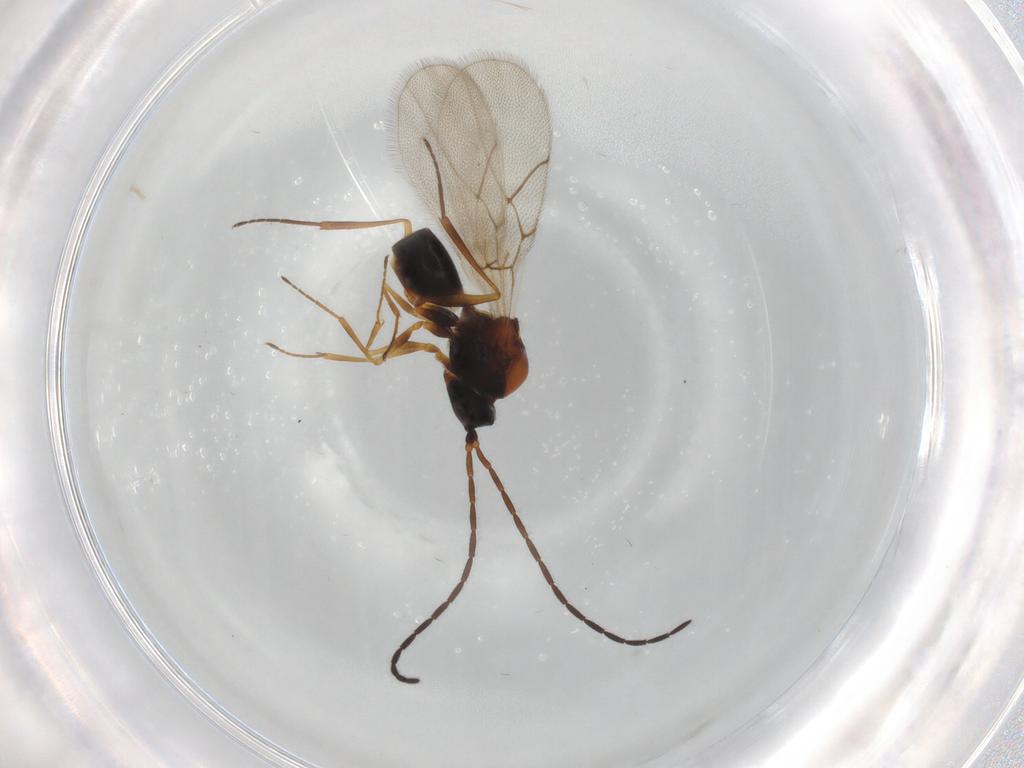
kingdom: Animalia
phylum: Arthropoda
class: Insecta
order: Hymenoptera
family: Figitidae
